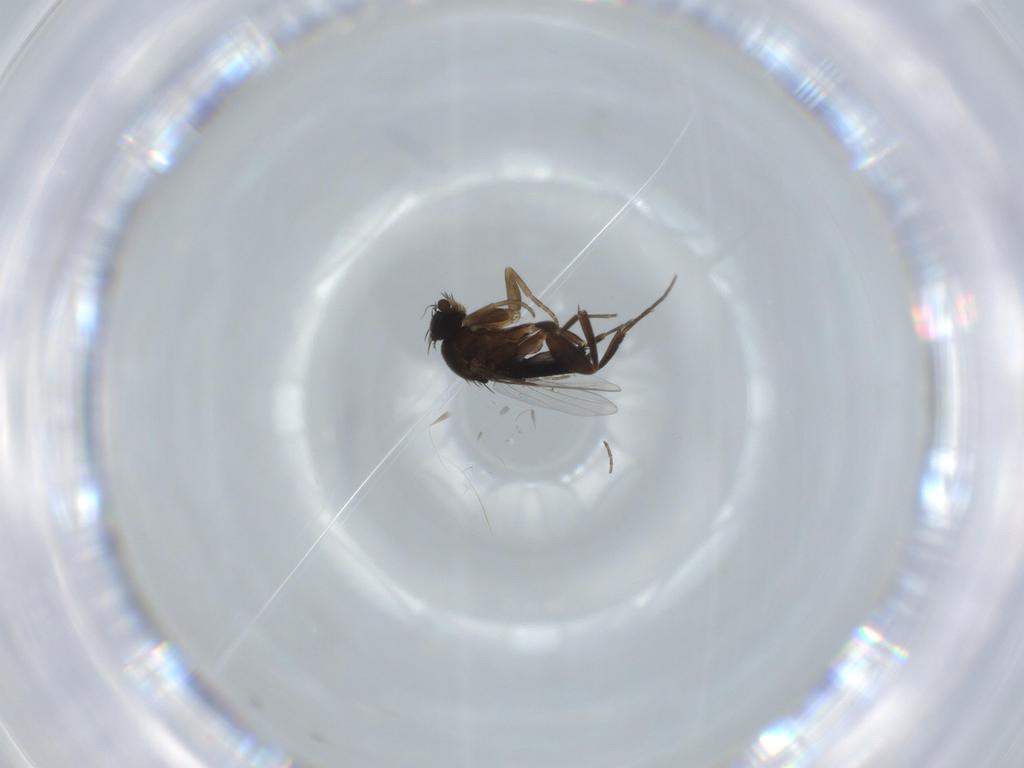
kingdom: Animalia
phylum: Arthropoda
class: Insecta
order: Diptera
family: Phoridae
